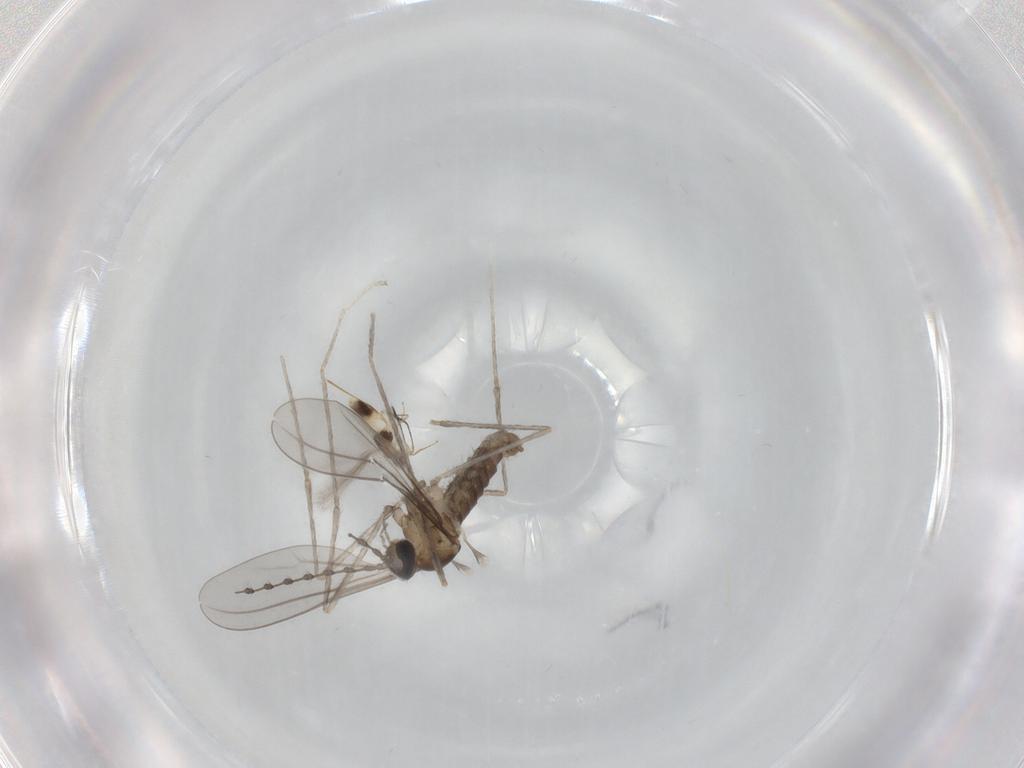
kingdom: Animalia
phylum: Arthropoda
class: Insecta
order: Diptera
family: Cecidomyiidae
